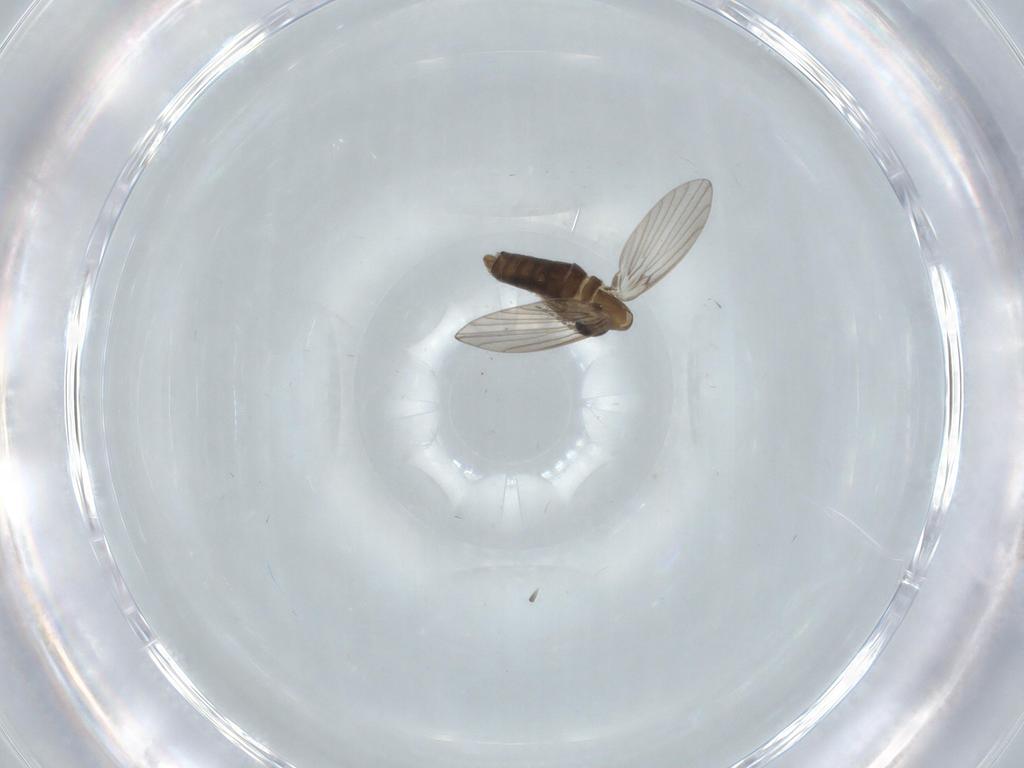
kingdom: Animalia
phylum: Arthropoda
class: Insecta
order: Diptera
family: Psychodidae
